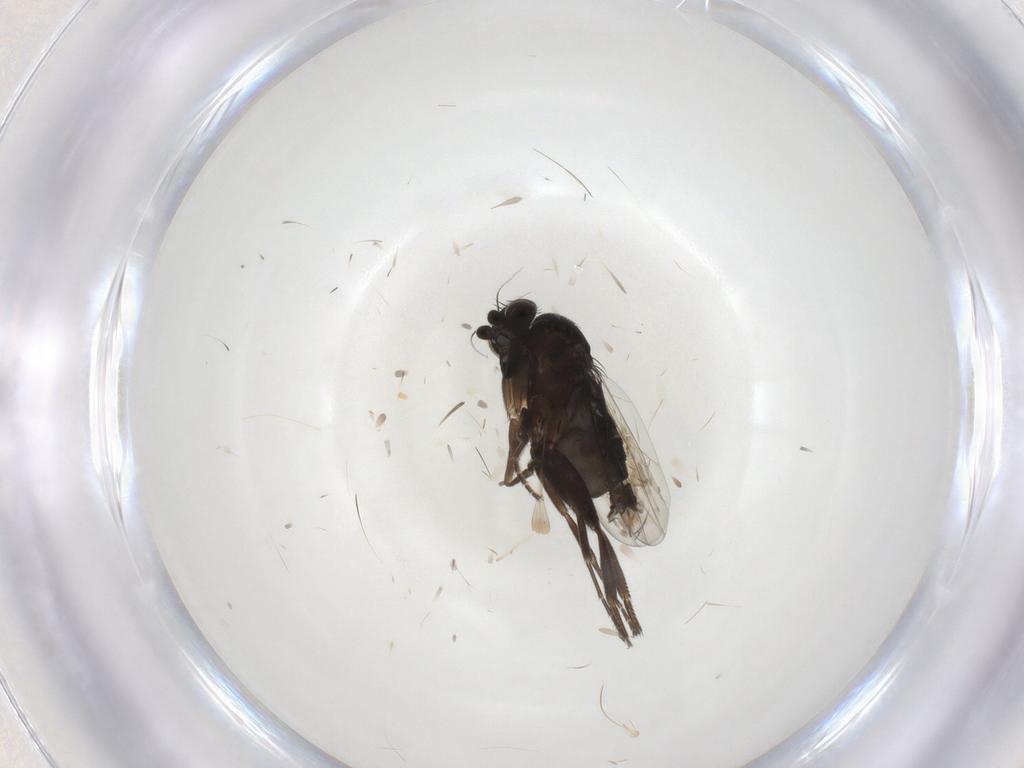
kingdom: Animalia
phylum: Arthropoda
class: Insecta
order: Diptera
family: Phoridae
